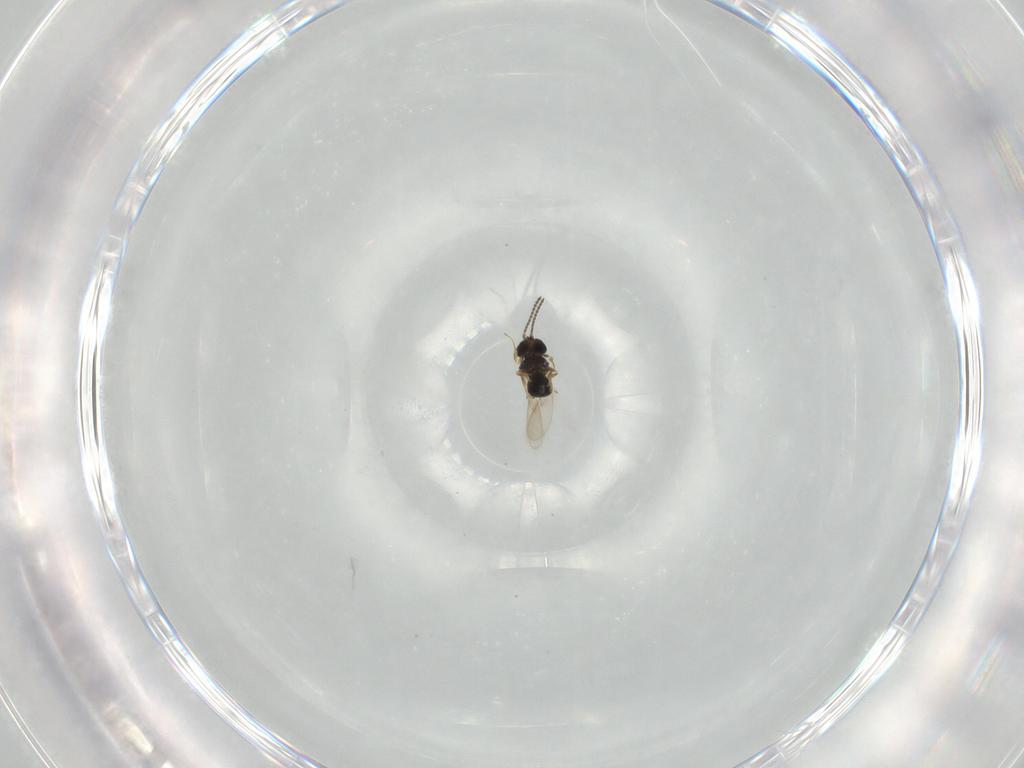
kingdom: Animalia
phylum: Arthropoda
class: Insecta
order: Hymenoptera
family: Scelionidae
